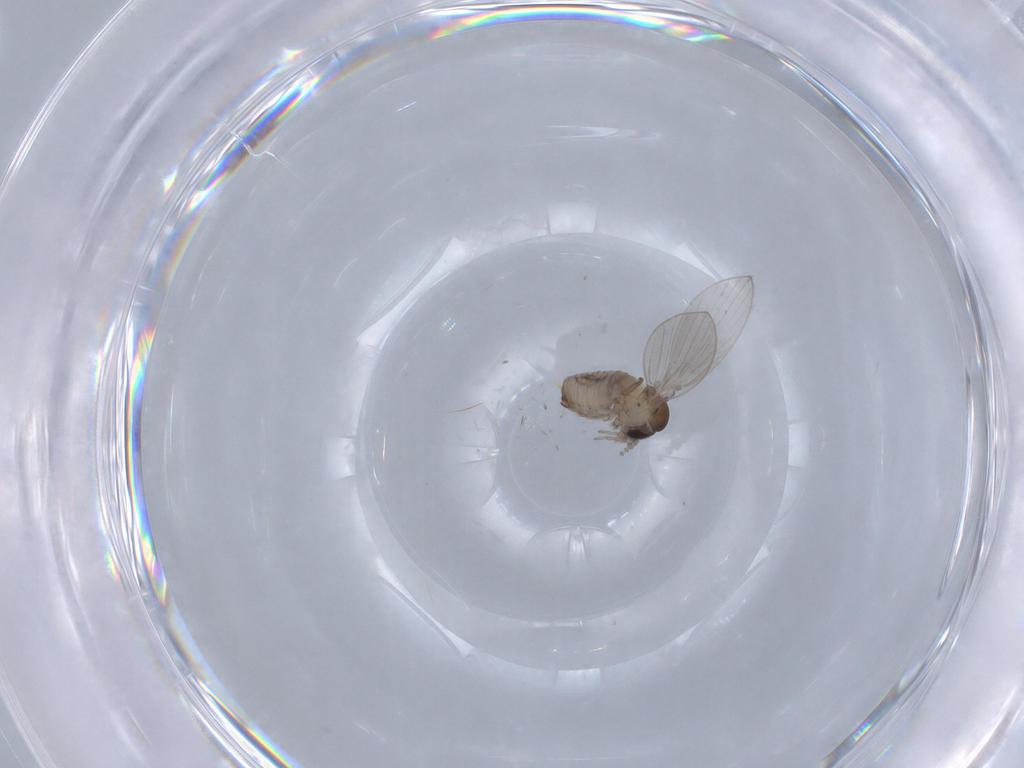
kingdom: Animalia
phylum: Arthropoda
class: Insecta
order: Diptera
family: Psychodidae
